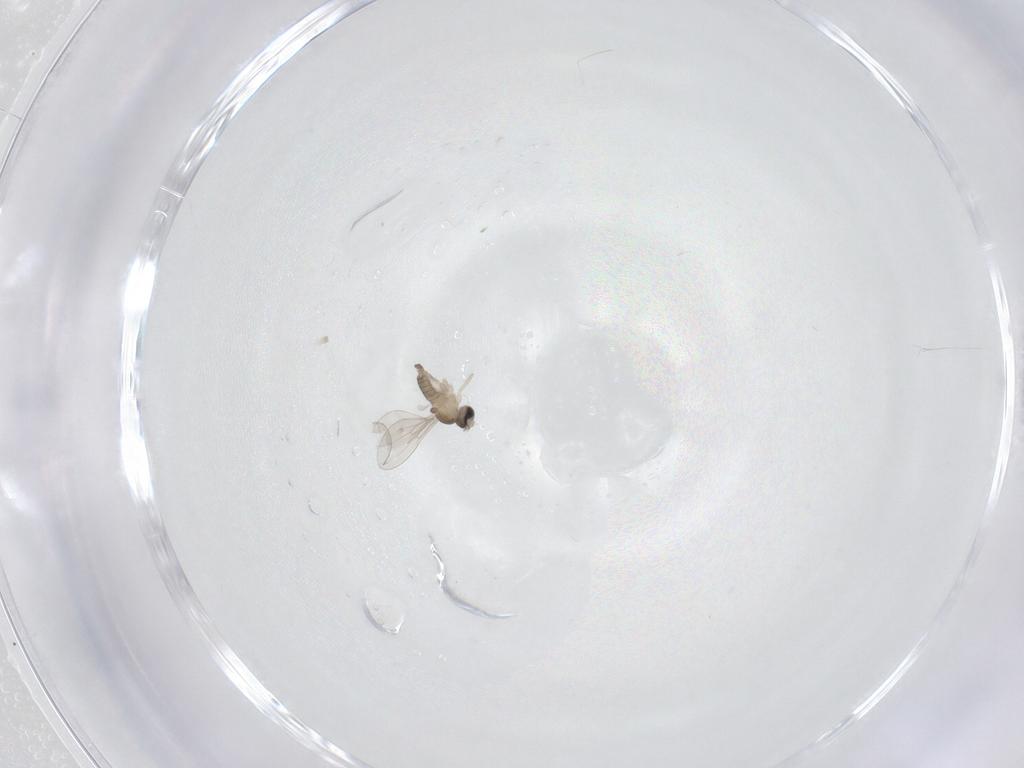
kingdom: Animalia
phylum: Arthropoda
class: Insecta
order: Diptera
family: Cecidomyiidae
